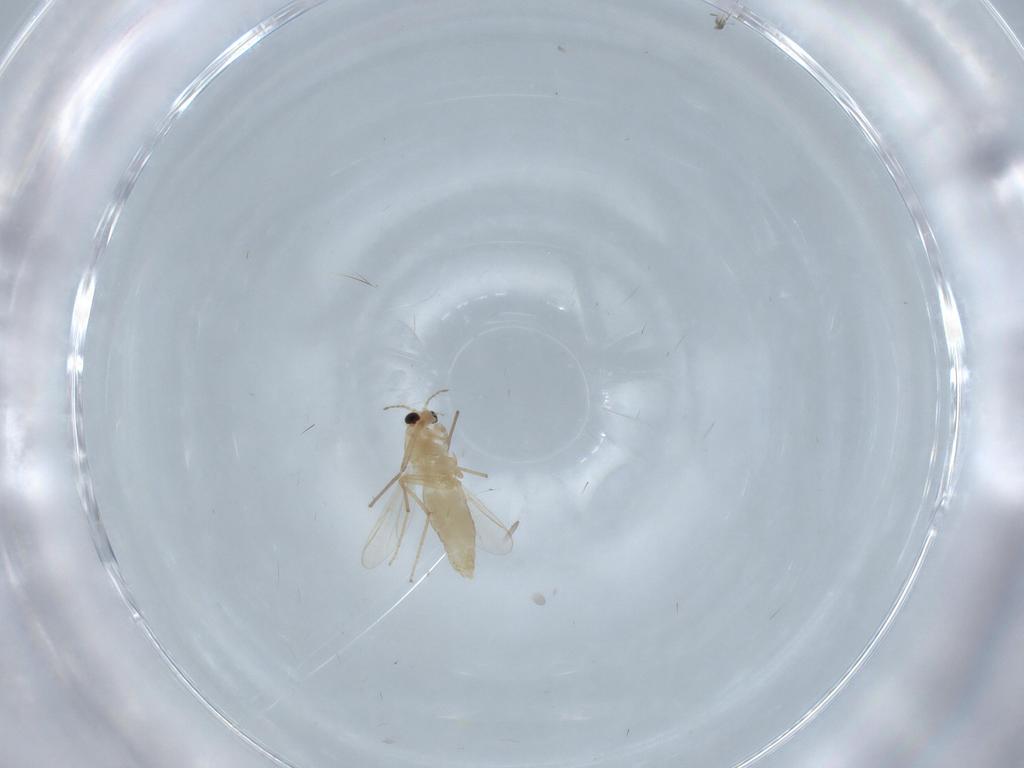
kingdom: Animalia
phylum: Arthropoda
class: Insecta
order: Diptera
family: Chironomidae
